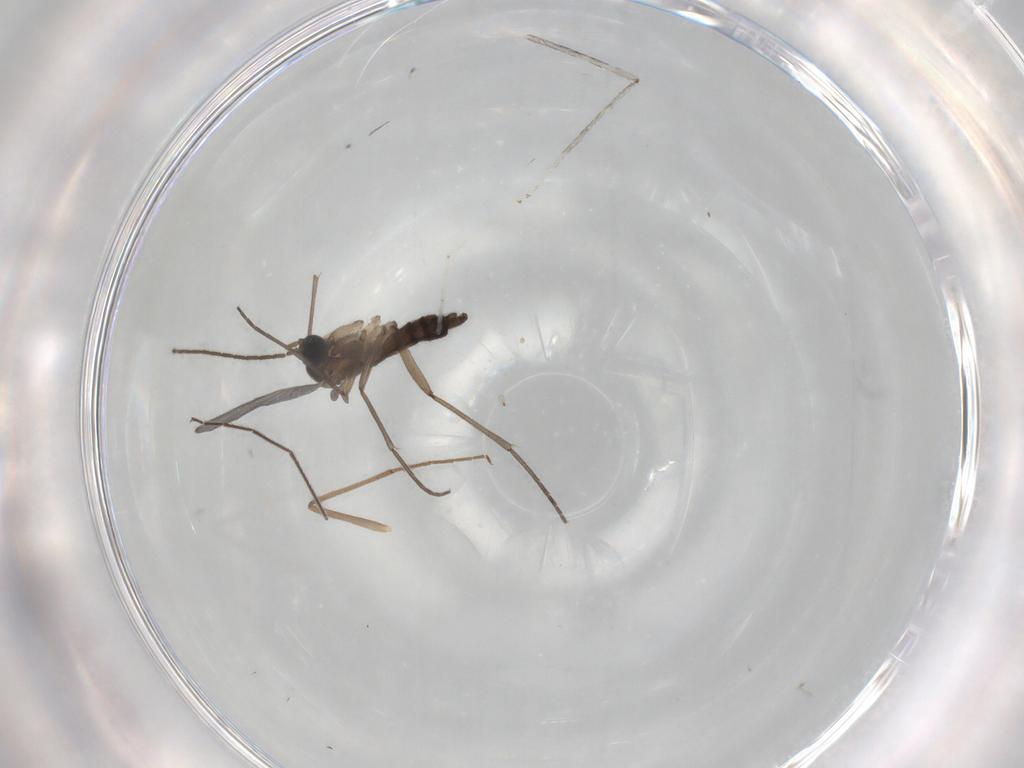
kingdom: Animalia
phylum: Arthropoda
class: Insecta
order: Diptera
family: Sciaridae
